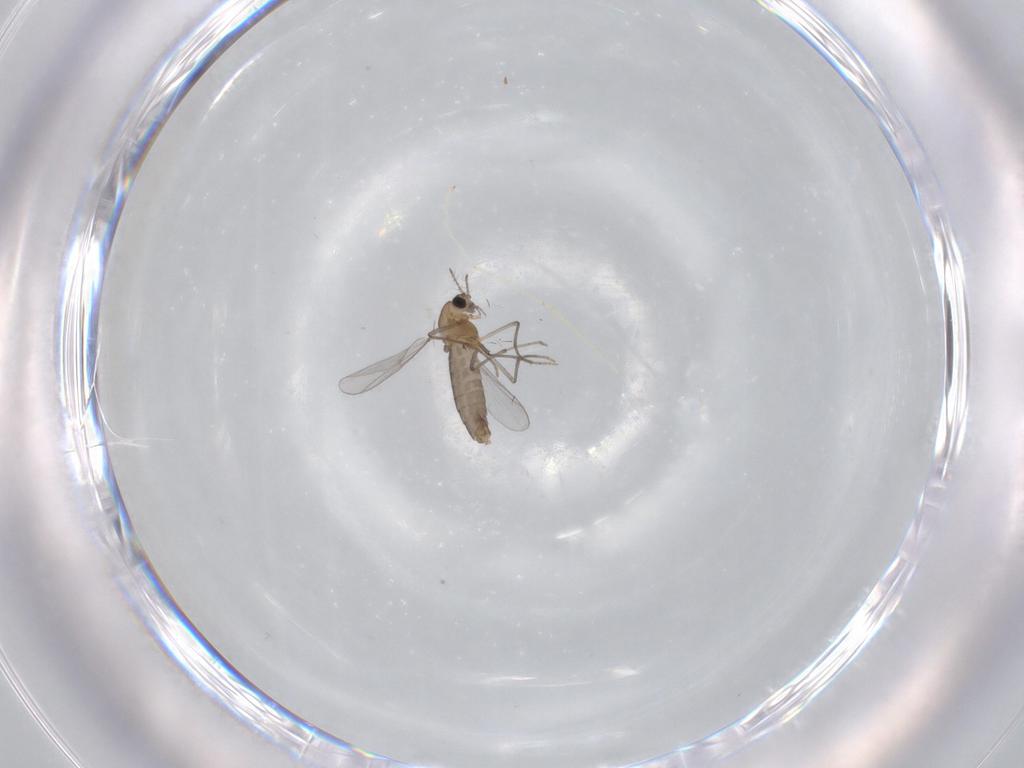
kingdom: Animalia
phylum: Arthropoda
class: Insecta
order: Diptera
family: Chironomidae
